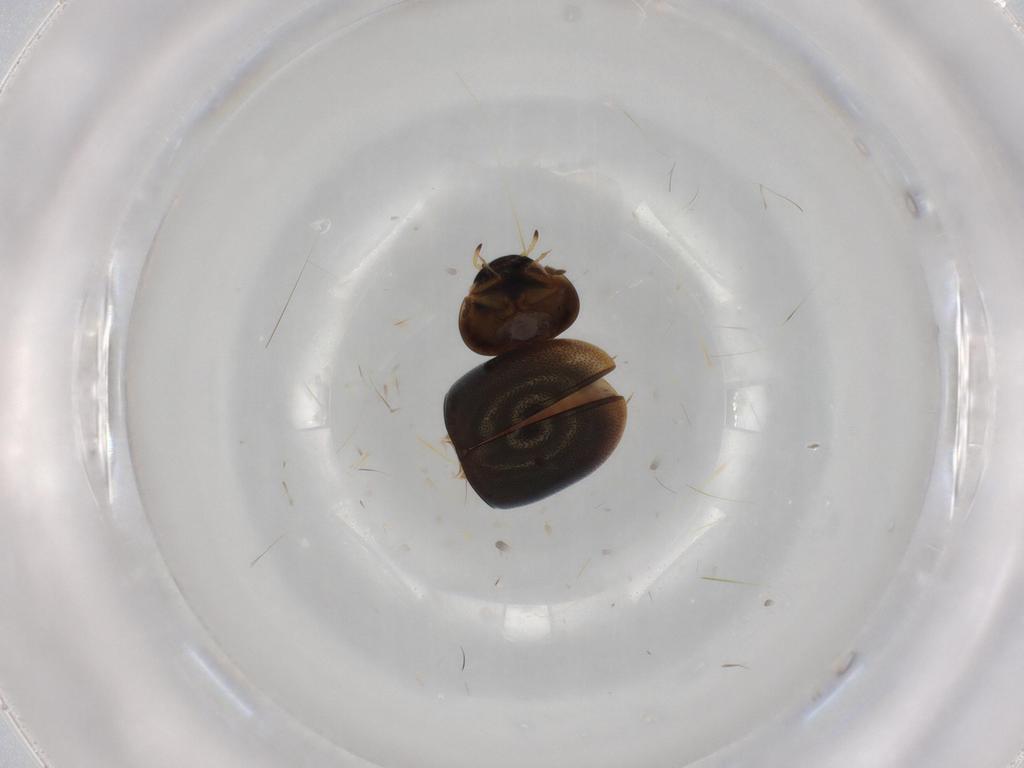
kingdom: Animalia
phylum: Arthropoda
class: Insecta
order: Coleoptera
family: Hydrophilidae
